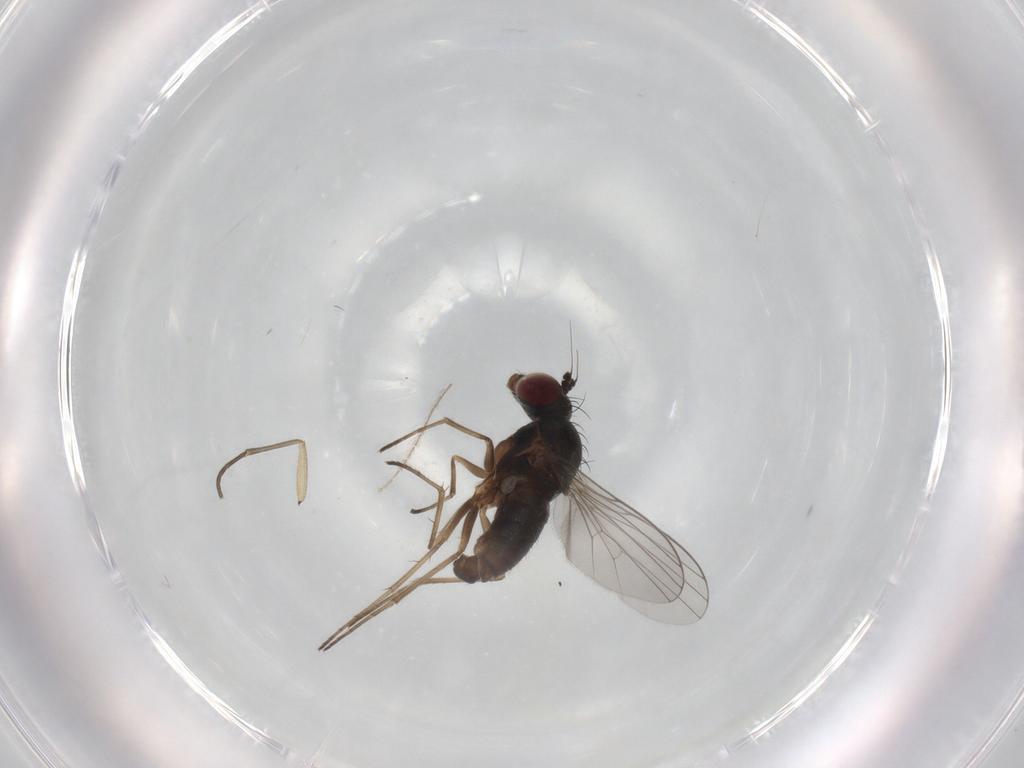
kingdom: Animalia
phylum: Arthropoda
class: Insecta
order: Diptera
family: Dolichopodidae
